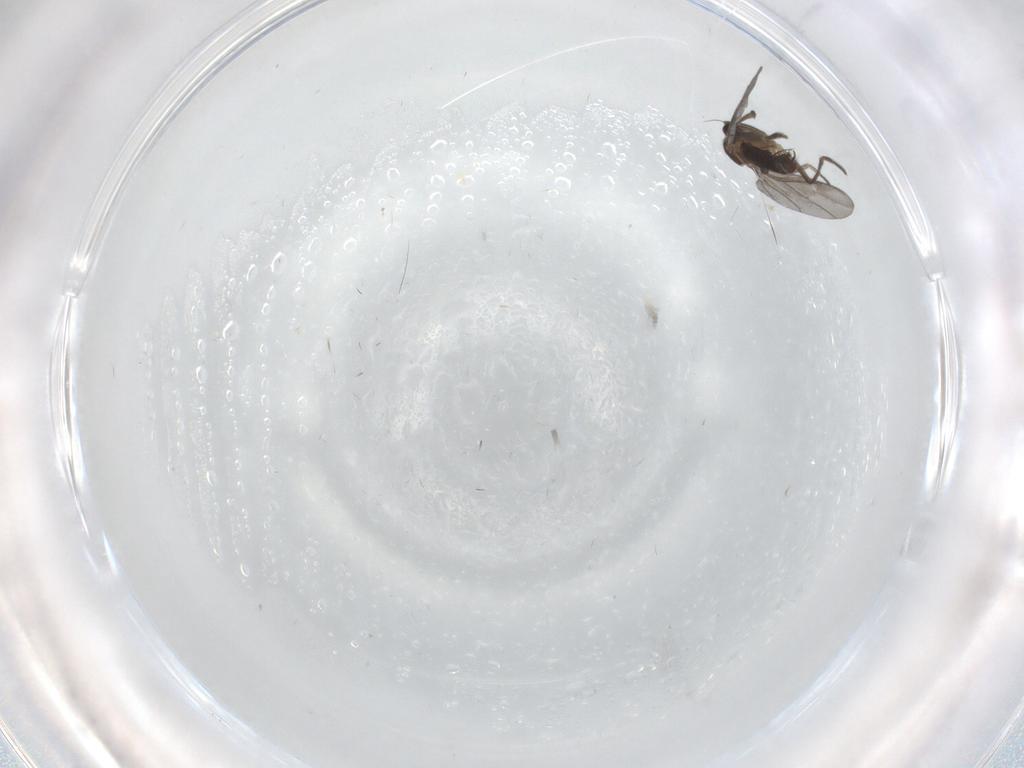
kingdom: Animalia
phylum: Arthropoda
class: Insecta
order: Diptera
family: Phoridae
